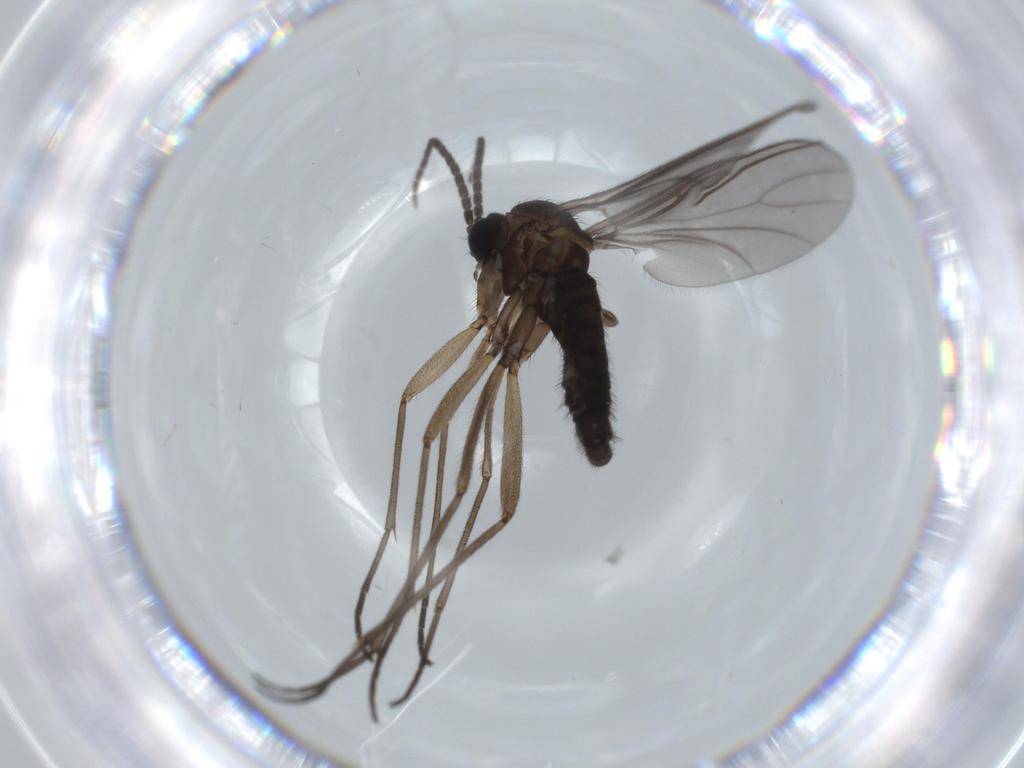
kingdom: Animalia
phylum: Arthropoda
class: Insecta
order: Diptera
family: Sciaridae
